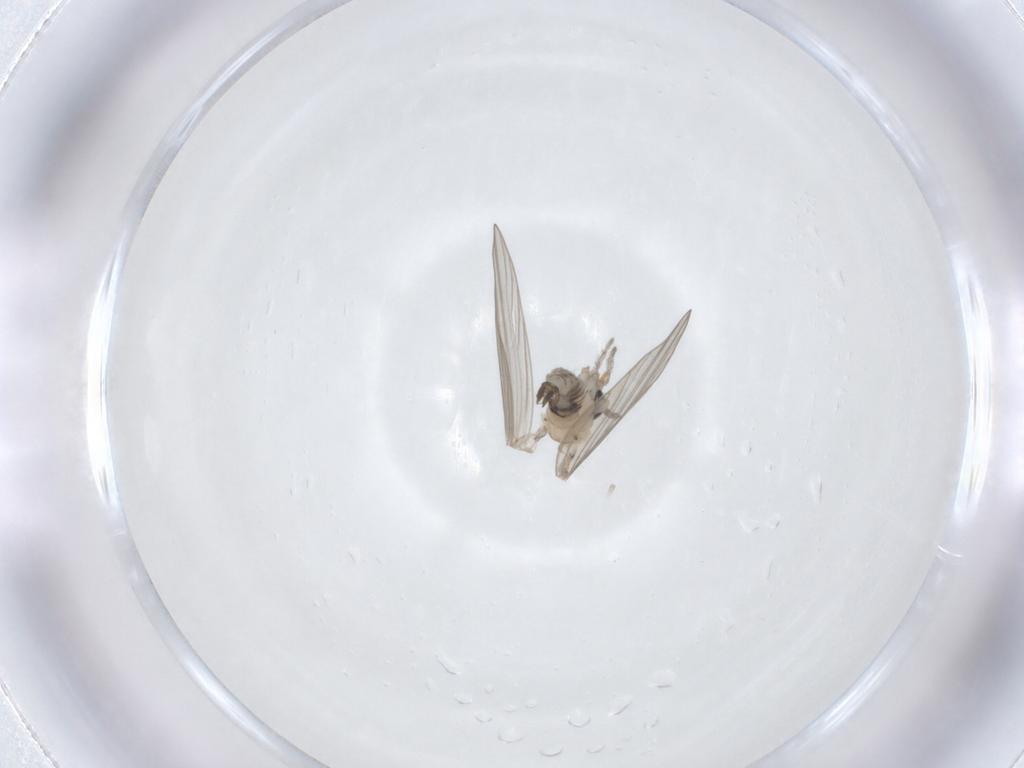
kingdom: Animalia
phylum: Arthropoda
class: Insecta
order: Diptera
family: Psychodidae
